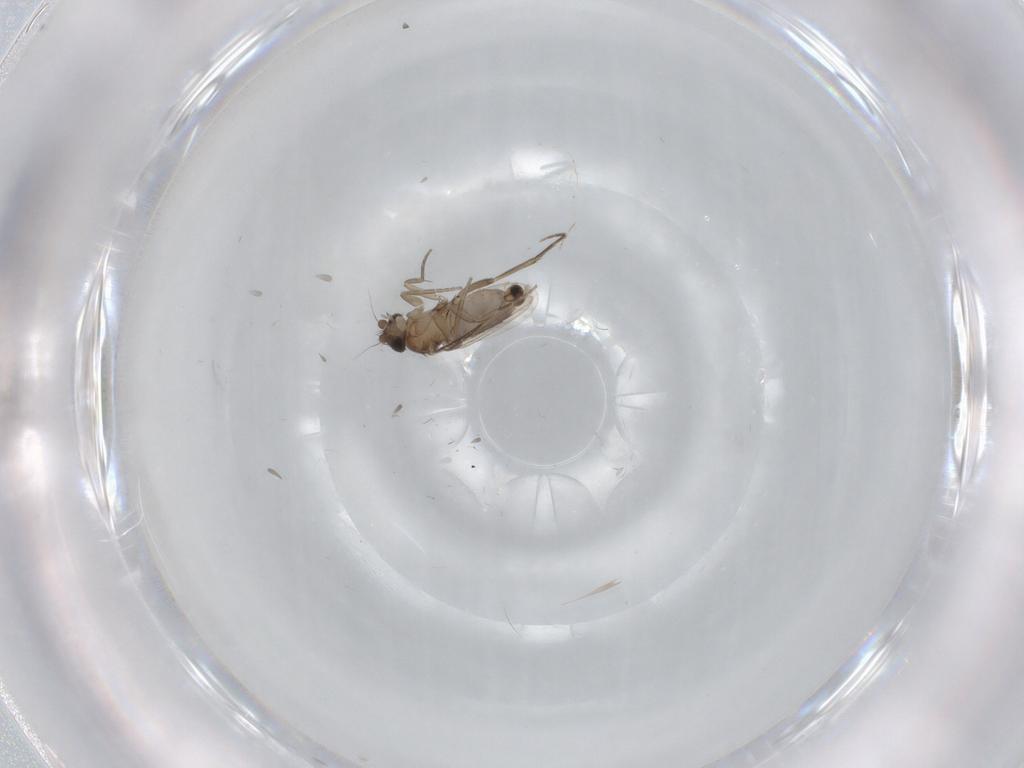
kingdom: Animalia
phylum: Arthropoda
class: Insecta
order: Diptera
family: Phoridae
